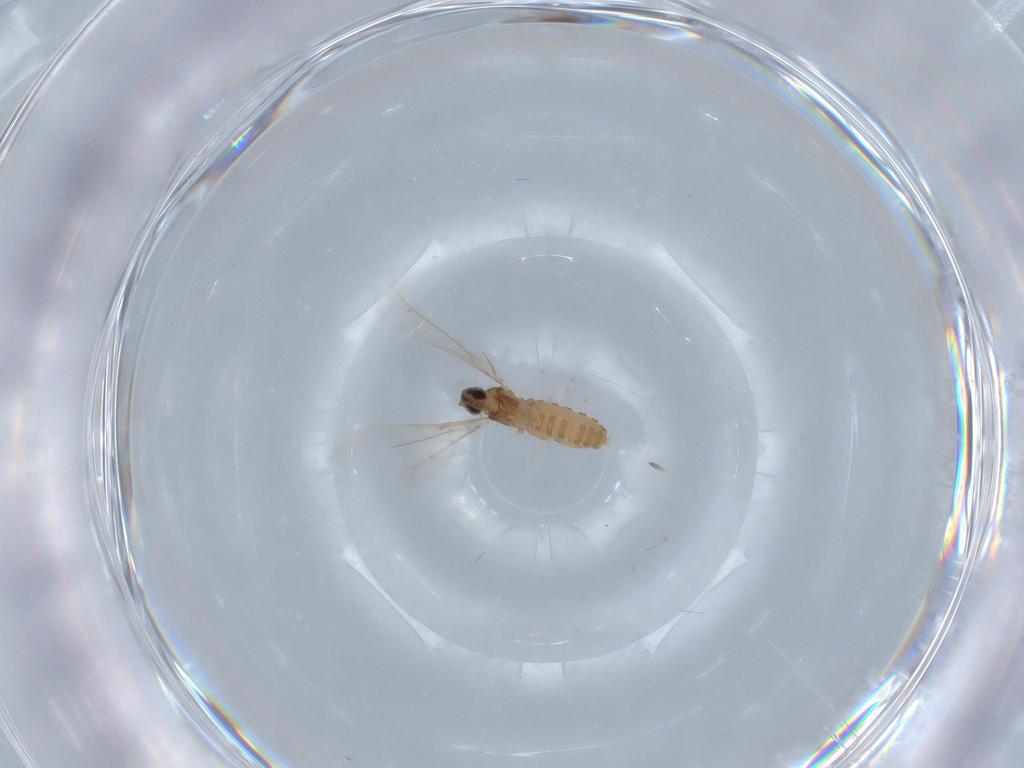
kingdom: Animalia
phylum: Arthropoda
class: Insecta
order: Diptera
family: Cecidomyiidae
